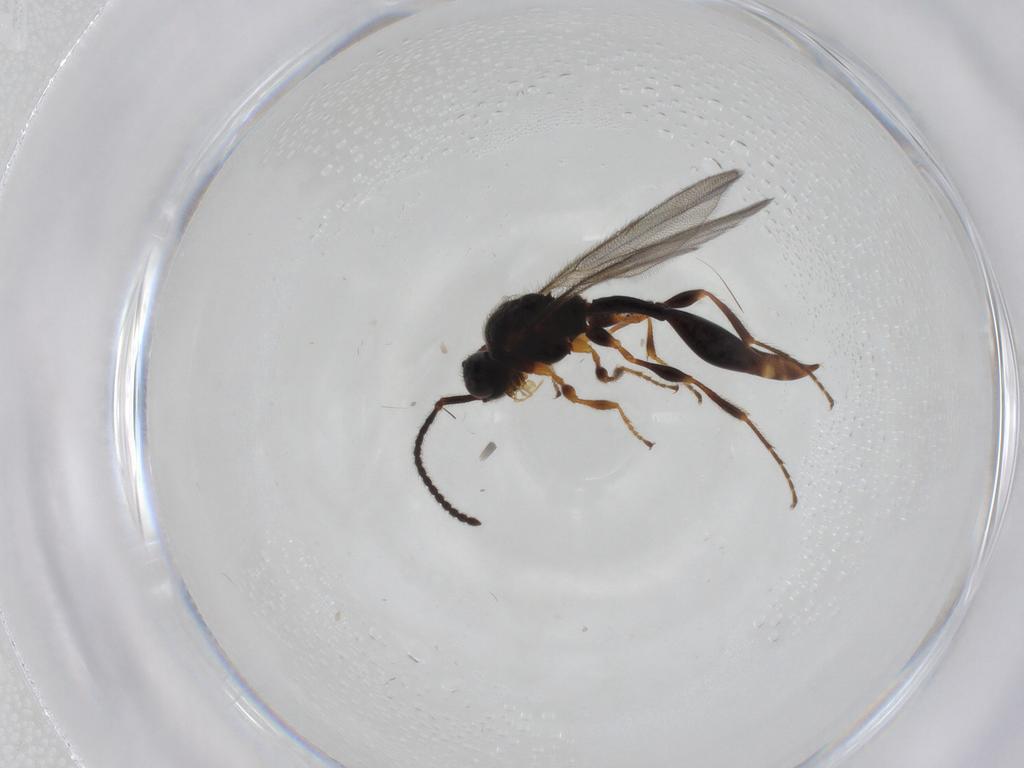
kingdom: Animalia
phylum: Arthropoda
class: Insecta
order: Hymenoptera
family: Diapriidae
